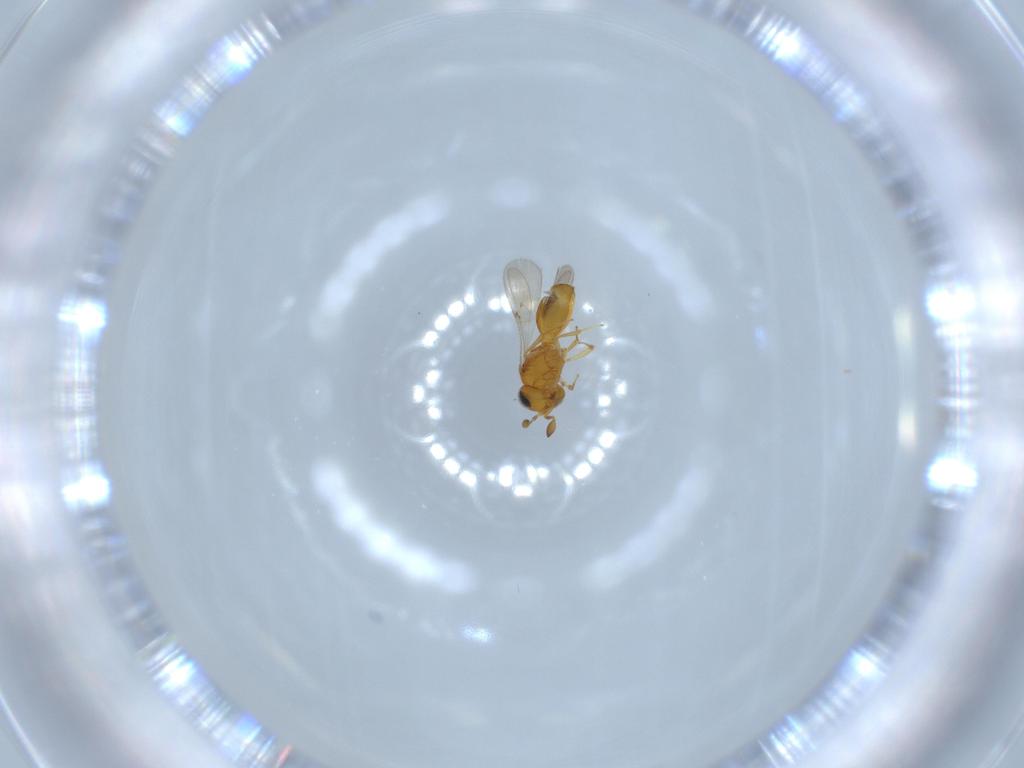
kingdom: Animalia
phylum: Arthropoda
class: Insecta
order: Hymenoptera
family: Scelionidae
